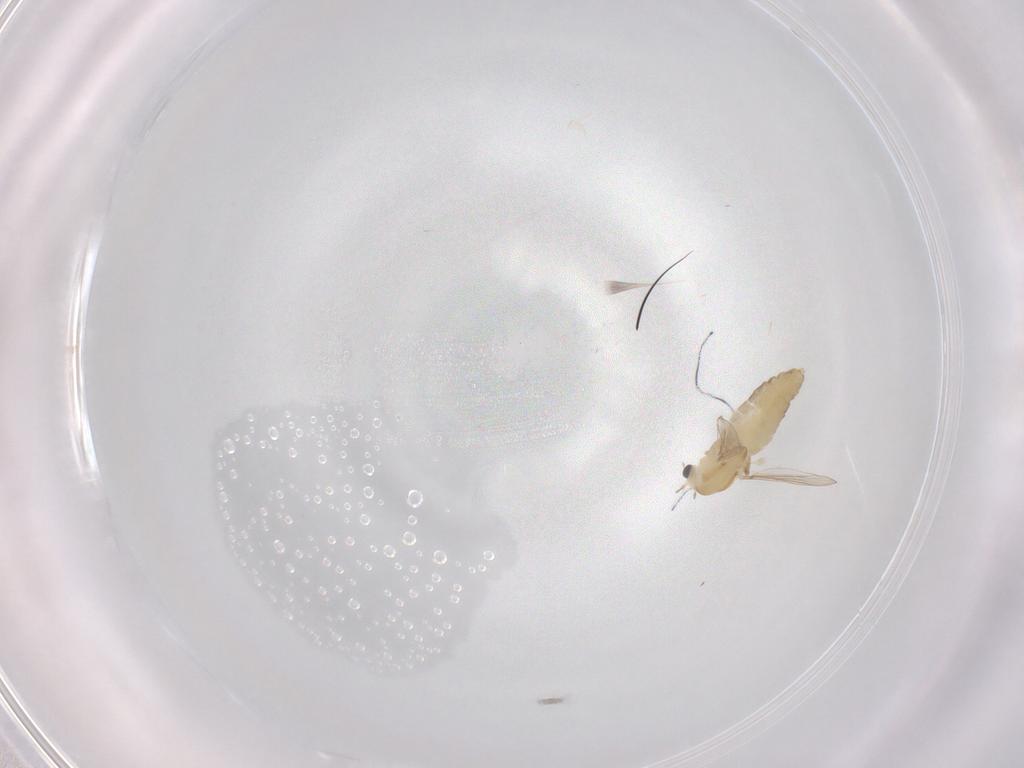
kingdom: Animalia
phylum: Arthropoda
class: Insecta
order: Diptera
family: Chironomidae
